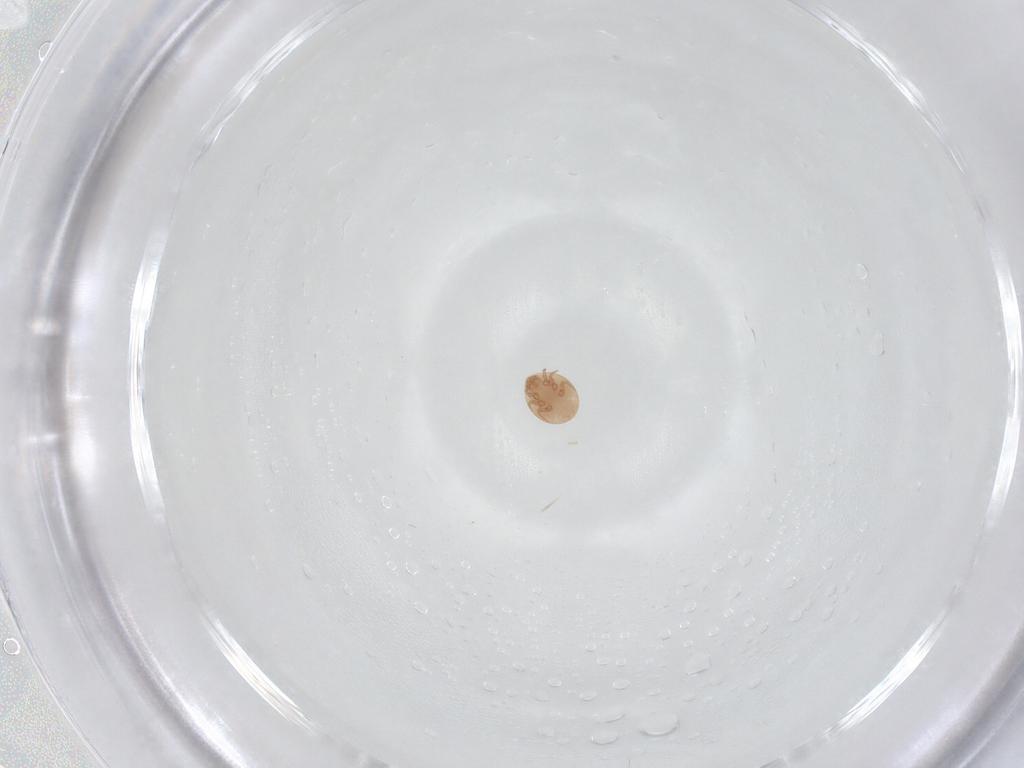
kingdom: Animalia
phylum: Arthropoda
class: Arachnida
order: Mesostigmata
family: Trematuridae
